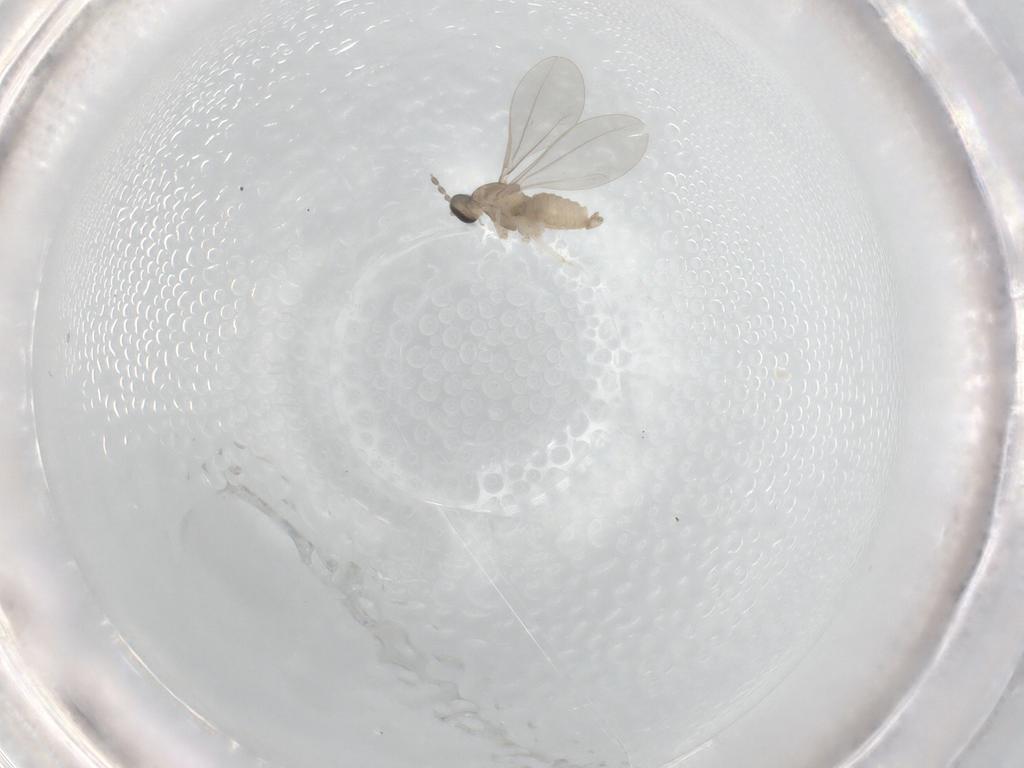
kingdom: Animalia
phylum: Arthropoda
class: Insecta
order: Diptera
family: Cecidomyiidae
